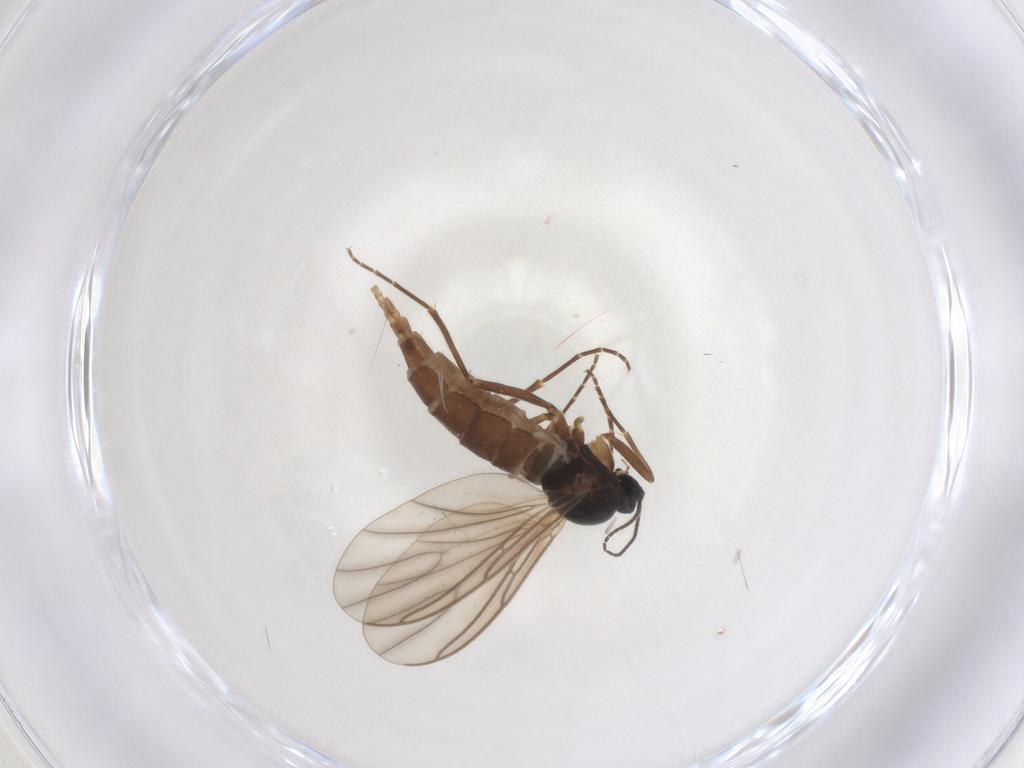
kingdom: Animalia
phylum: Arthropoda
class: Insecta
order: Diptera
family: Sciaridae
